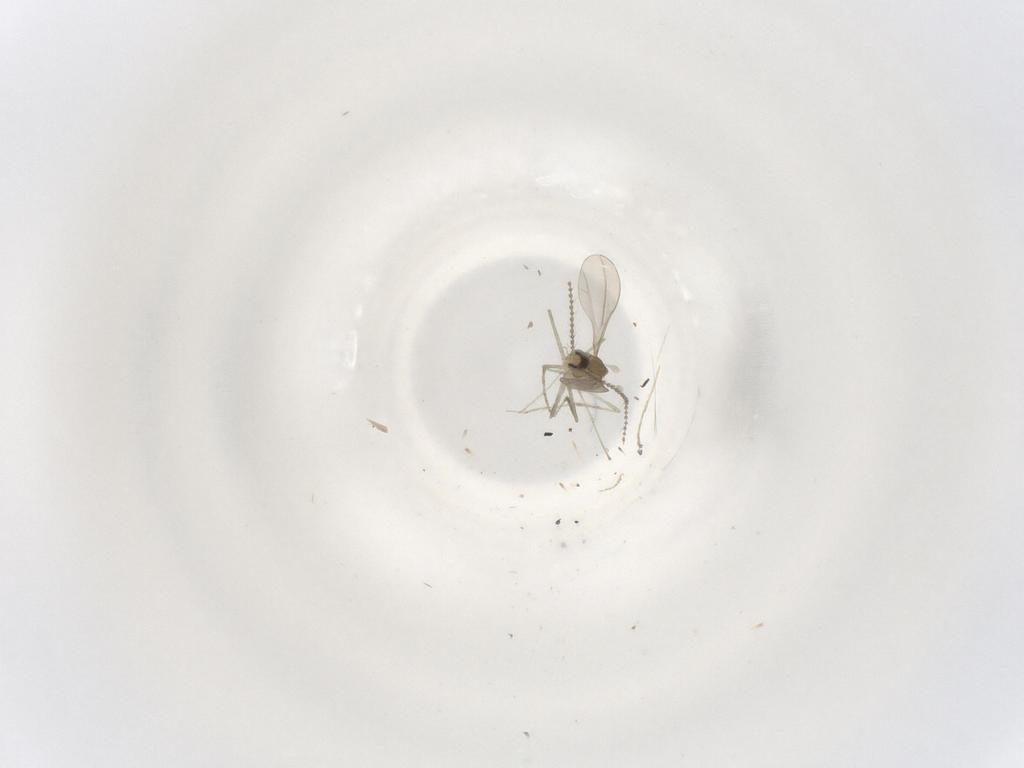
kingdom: Animalia
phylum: Arthropoda
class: Insecta
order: Diptera
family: Cecidomyiidae
